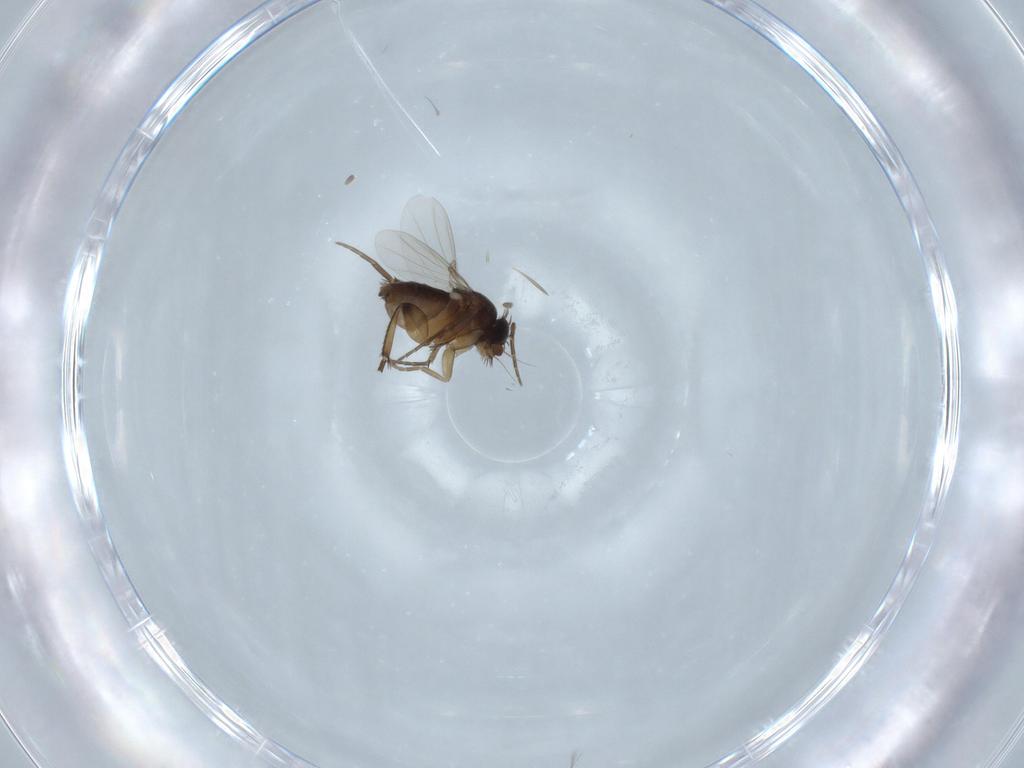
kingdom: Animalia
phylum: Arthropoda
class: Insecta
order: Diptera
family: Phoridae
